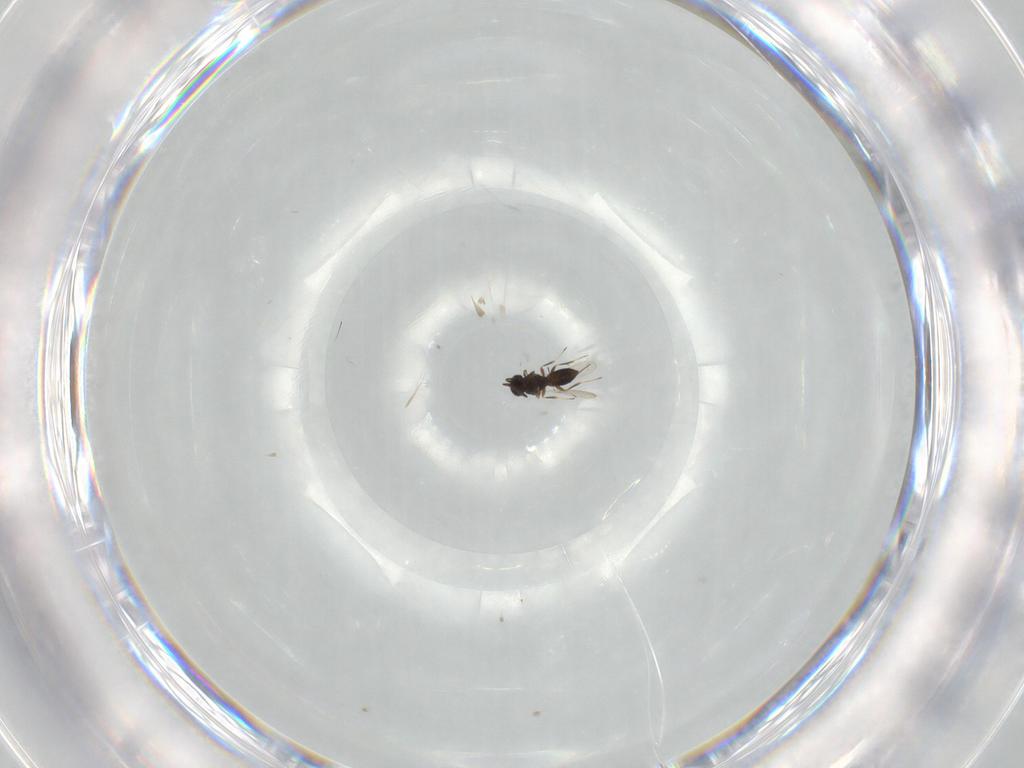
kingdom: Animalia
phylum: Arthropoda
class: Insecta
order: Hymenoptera
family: Scelionidae
